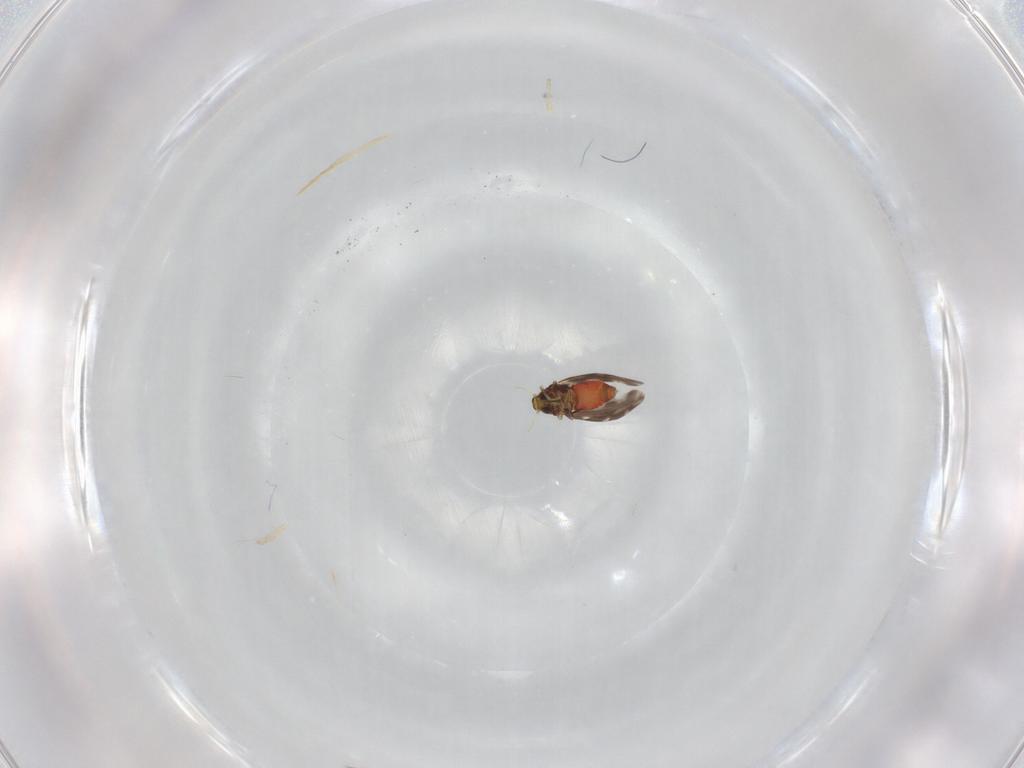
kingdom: Animalia
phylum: Arthropoda
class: Insecta
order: Hemiptera
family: Aleyrodidae
